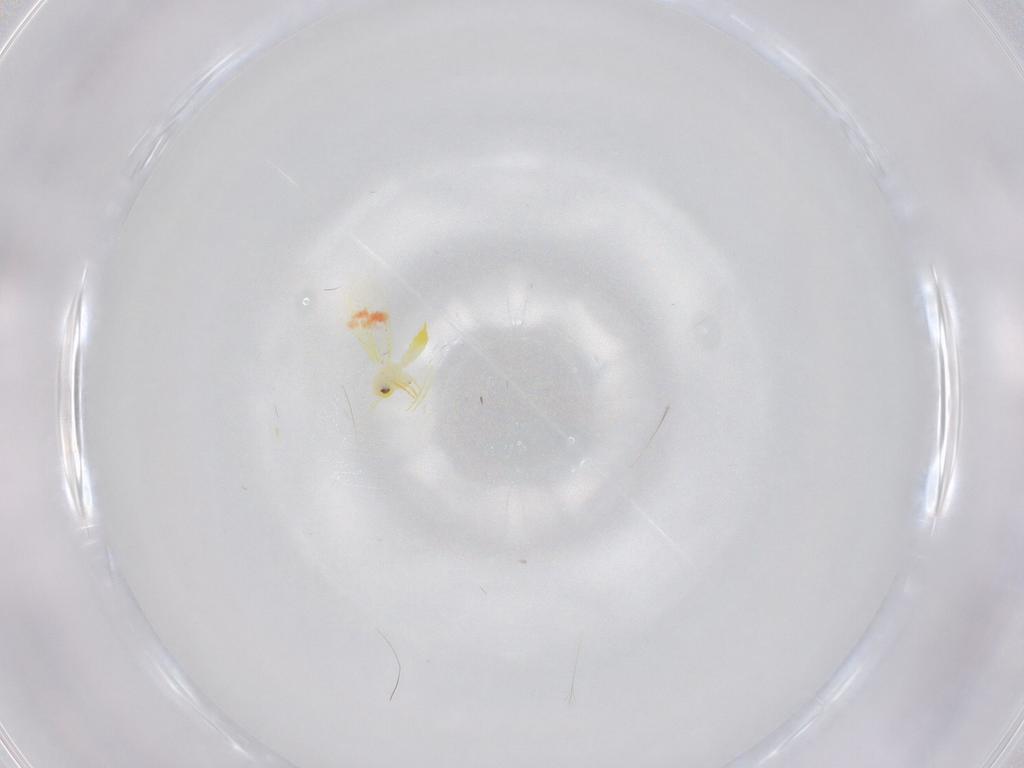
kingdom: Animalia
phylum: Arthropoda
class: Insecta
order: Hemiptera
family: Aleyrodidae
